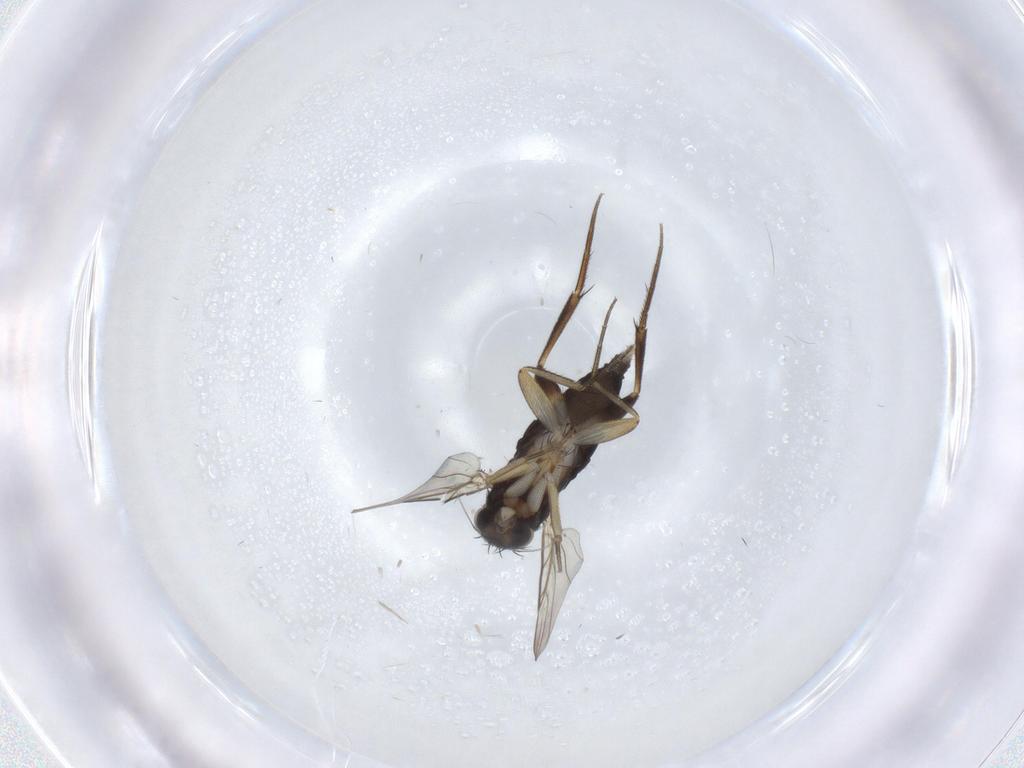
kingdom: Animalia
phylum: Arthropoda
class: Insecta
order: Diptera
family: Phoridae
